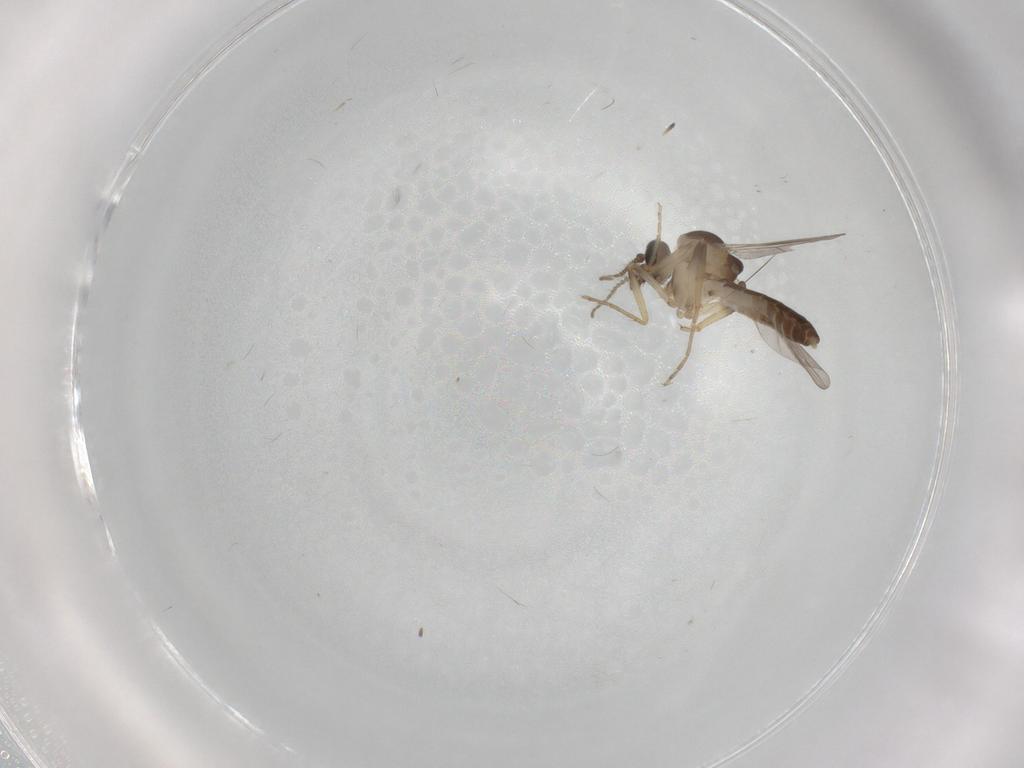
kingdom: Animalia
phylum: Arthropoda
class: Insecta
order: Diptera
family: Ceratopogonidae
